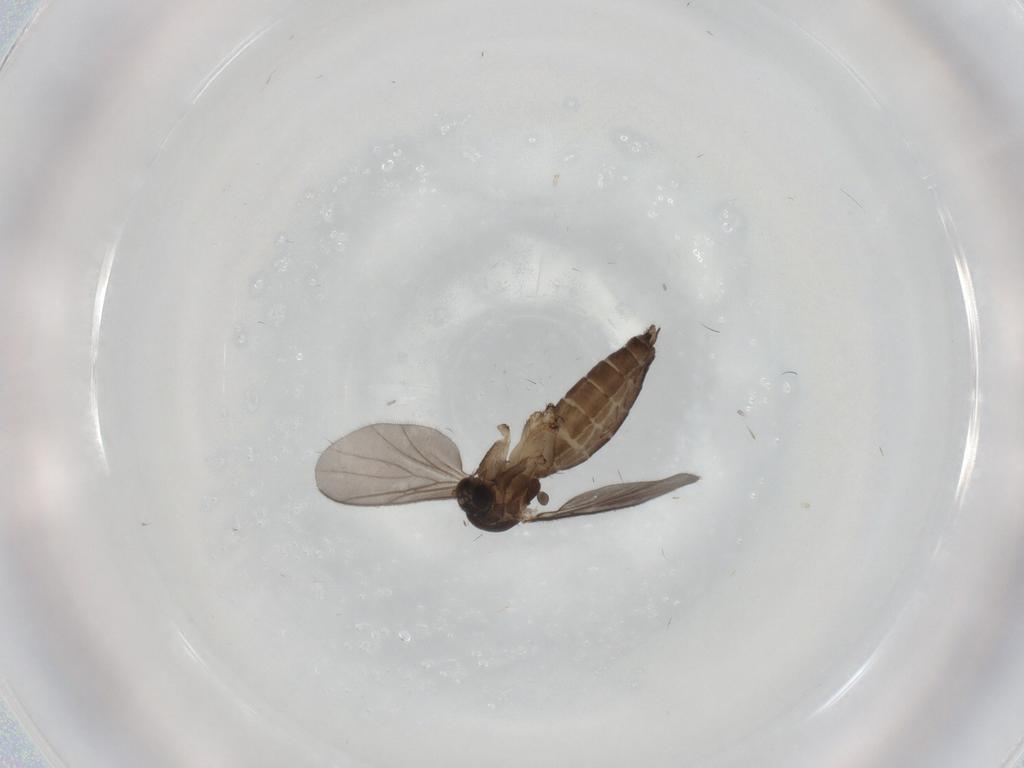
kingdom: Animalia
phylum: Arthropoda
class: Insecta
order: Diptera
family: Mycetophilidae
